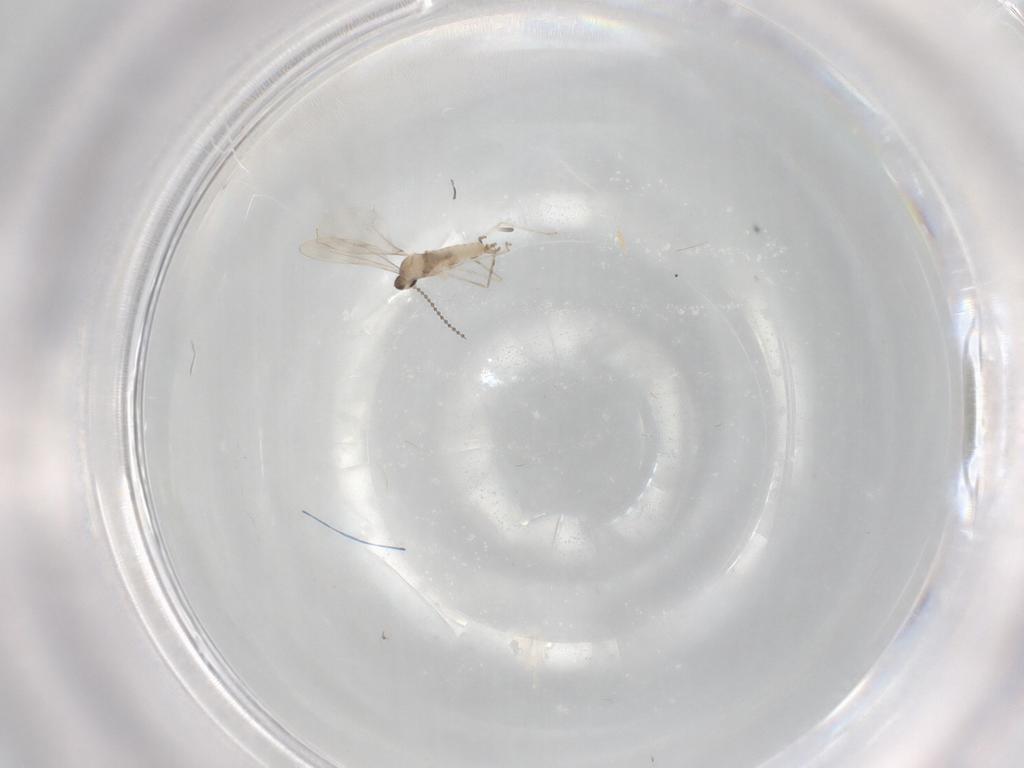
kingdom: Animalia
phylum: Arthropoda
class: Insecta
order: Diptera
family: Cecidomyiidae
